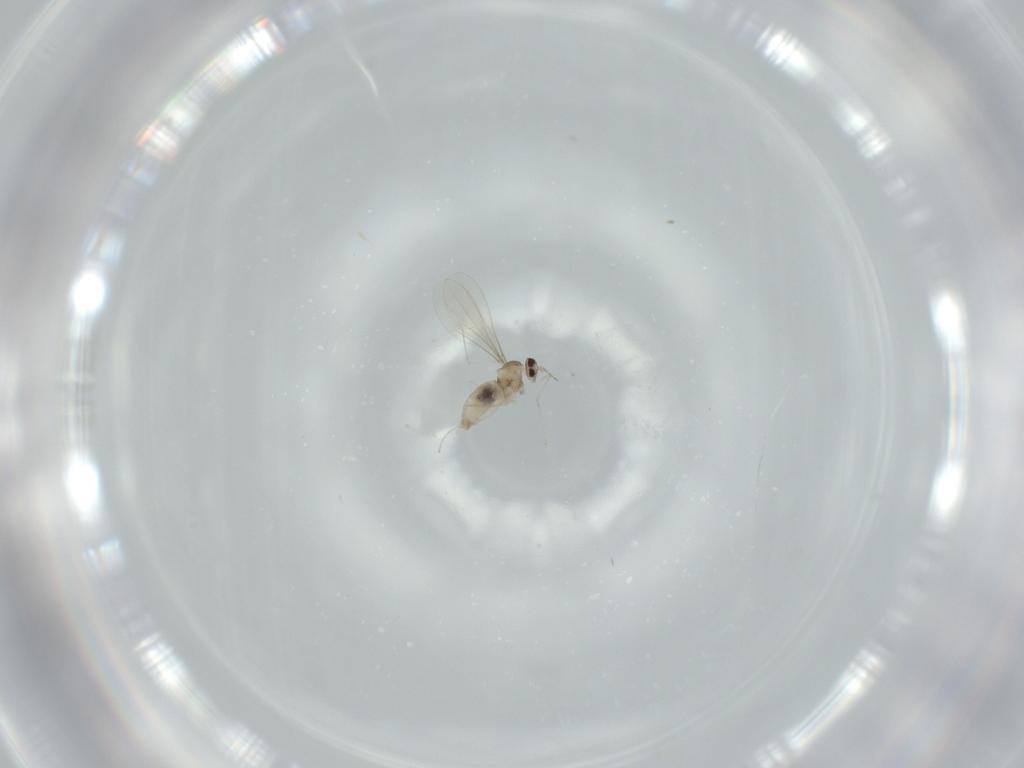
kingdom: Animalia
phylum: Arthropoda
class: Insecta
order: Diptera
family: Cecidomyiidae
